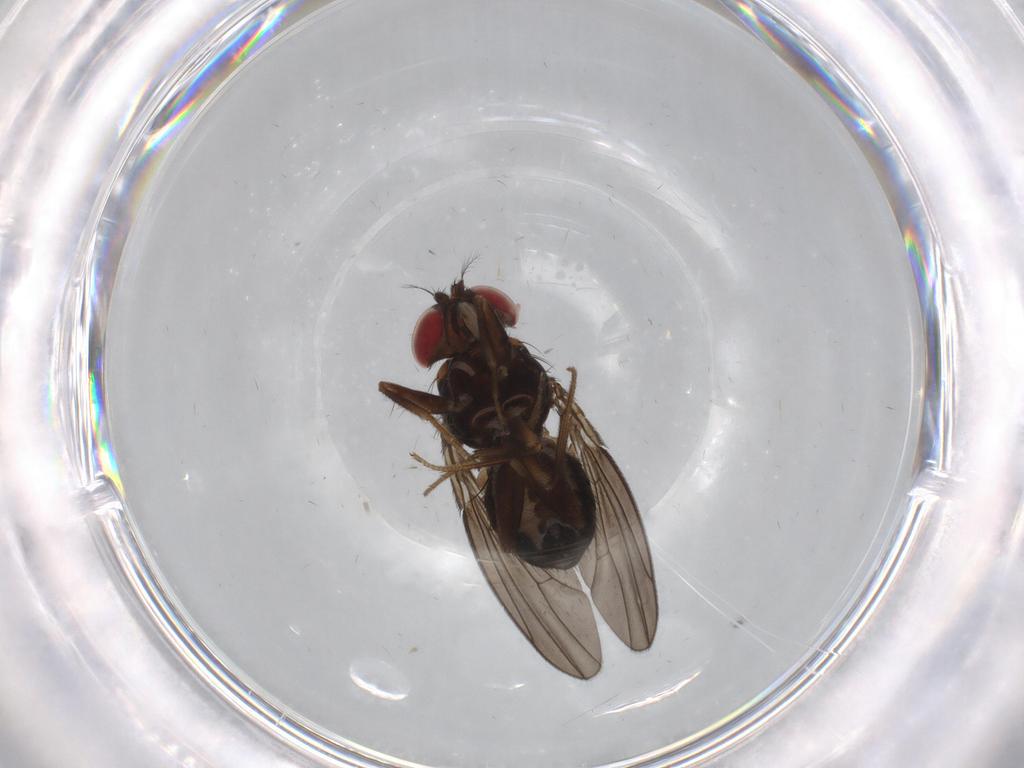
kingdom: Animalia
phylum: Arthropoda
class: Insecta
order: Diptera
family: Drosophilidae
